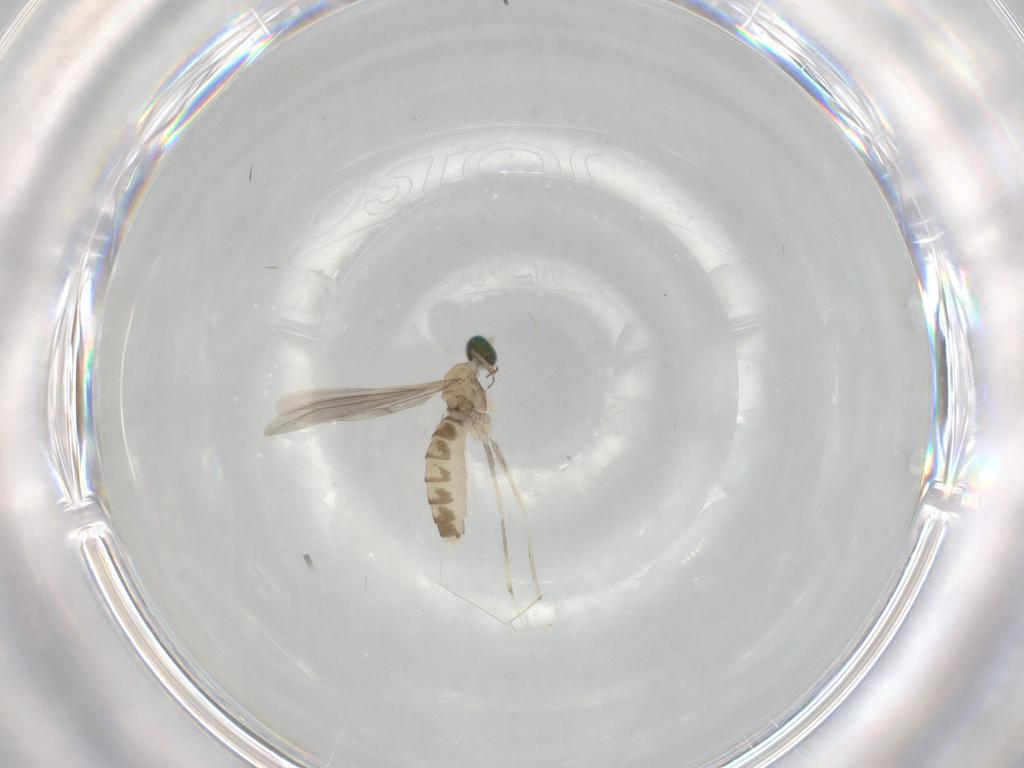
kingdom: Animalia
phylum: Arthropoda
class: Insecta
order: Diptera
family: Cecidomyiidae
